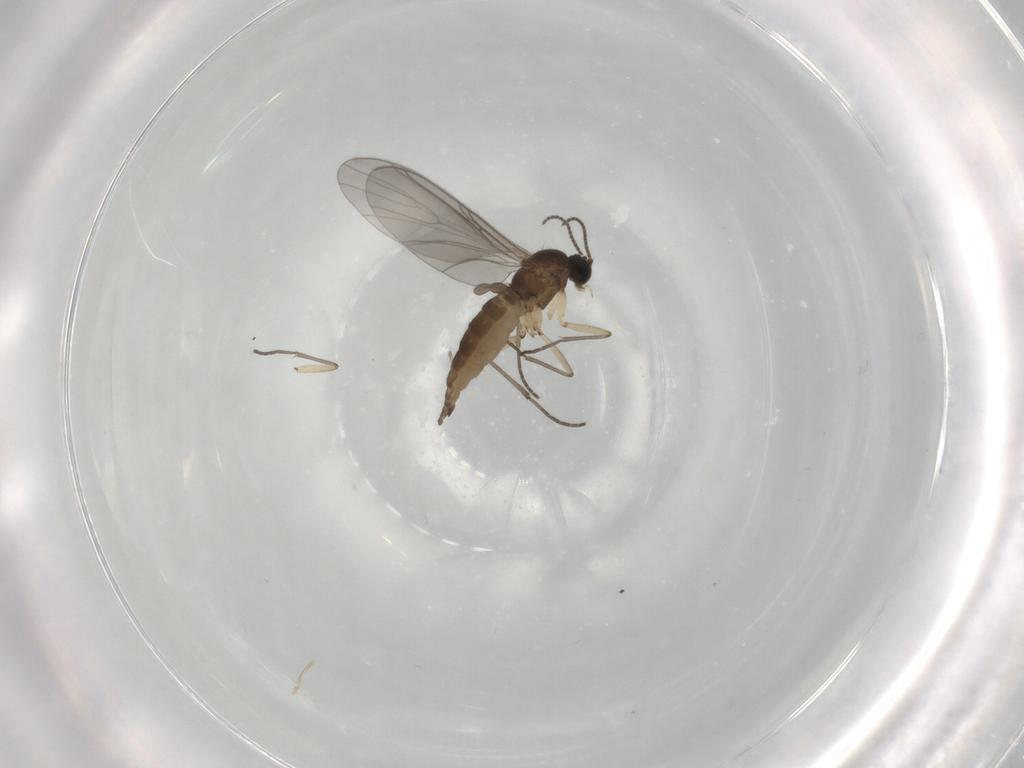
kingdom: Animalia
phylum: Arthropoda
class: Insecta
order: Diptera
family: Sciaridae
